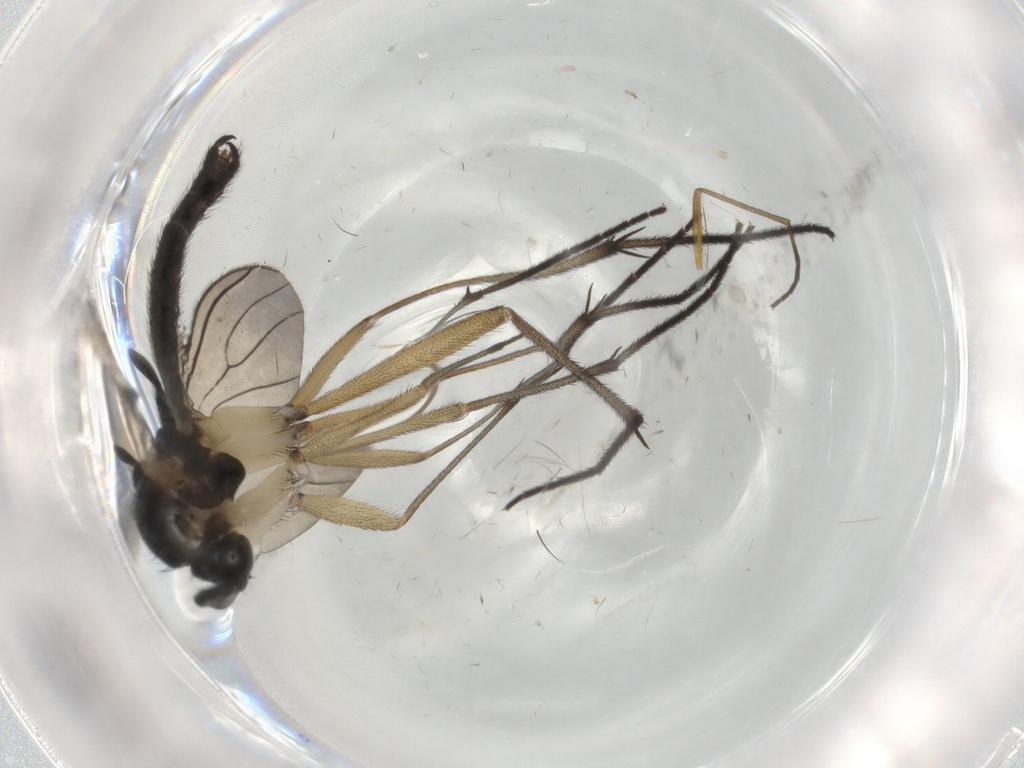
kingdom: Animalia
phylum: Arthropoda
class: Insecta
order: Diptera
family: Sciaridae
